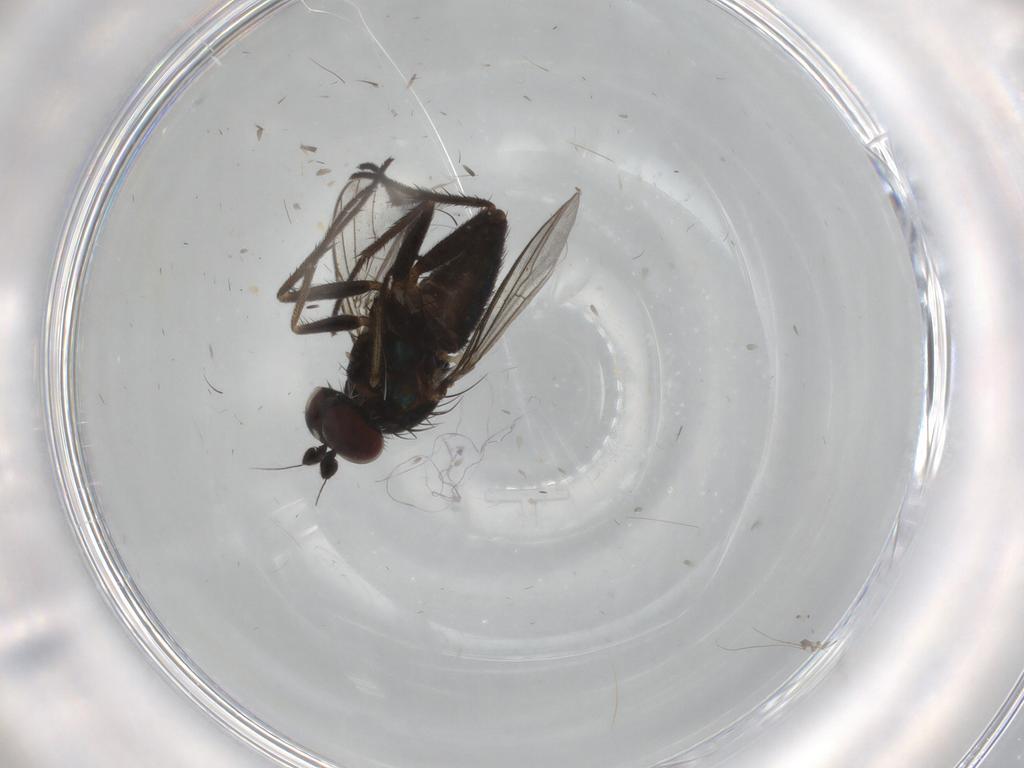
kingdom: Animalia
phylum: Arthropoda
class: Insecta
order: Diptera
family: Dolichopodidae
